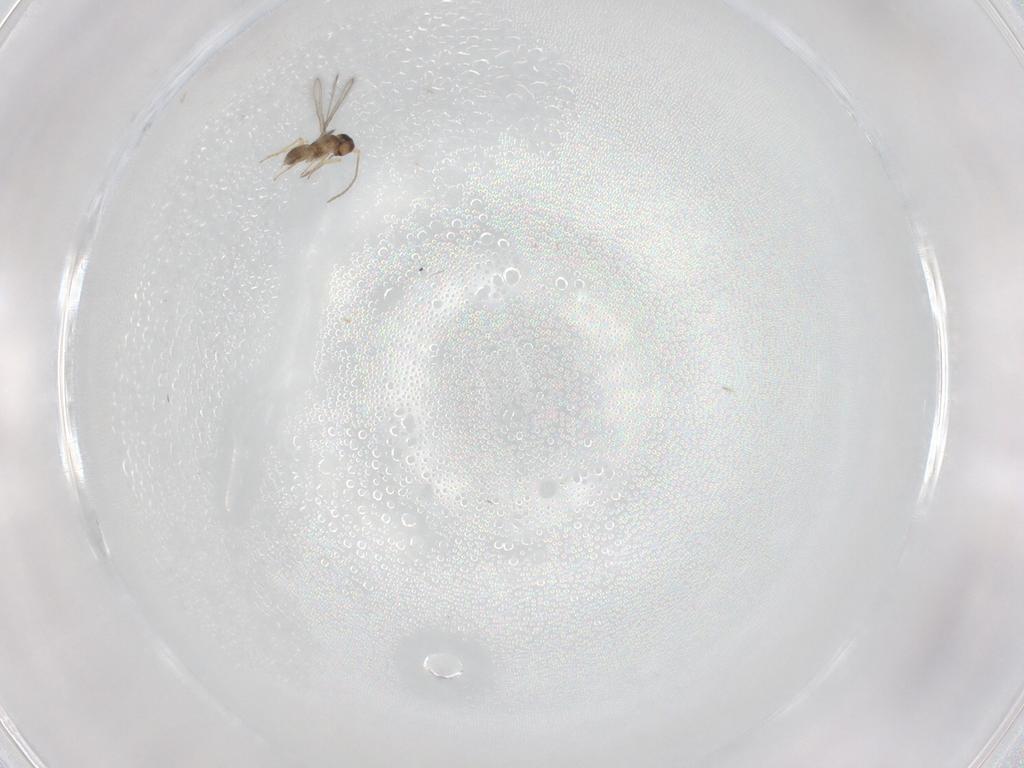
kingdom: Animalia
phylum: Arthropoda
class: Insecta
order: Hymenoptera
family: Mymaridae
